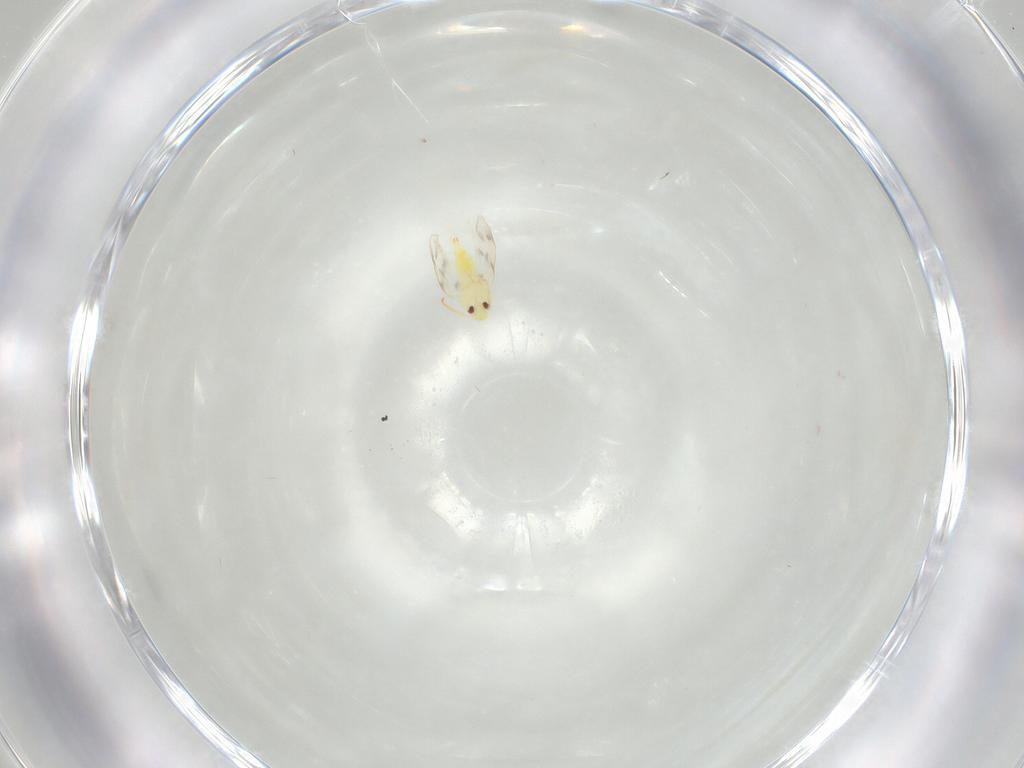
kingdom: Animalia
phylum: Arthropoda
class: Insecta
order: Hemiptera
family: Aleyrodidae
